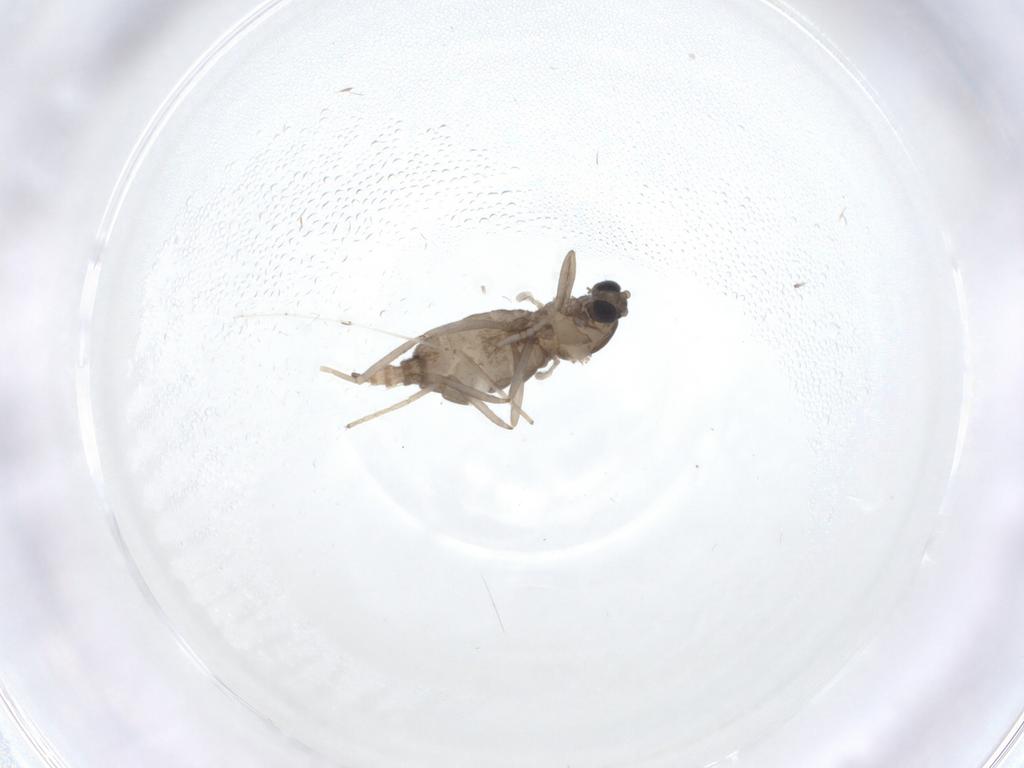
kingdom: Animalia
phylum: Arthropoda
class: Insecta
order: Diptera
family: Cecidomyiidae
